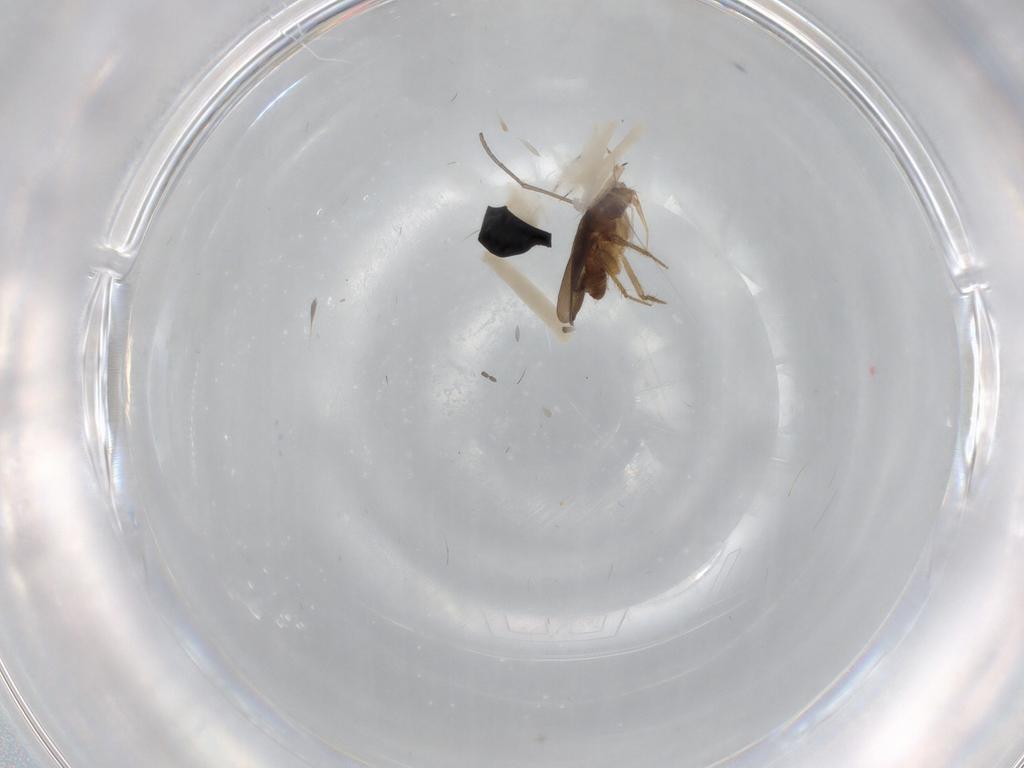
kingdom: Animalia
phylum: Arthropoda
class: Insecta
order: Hemiptera
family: Ceratocombidae
